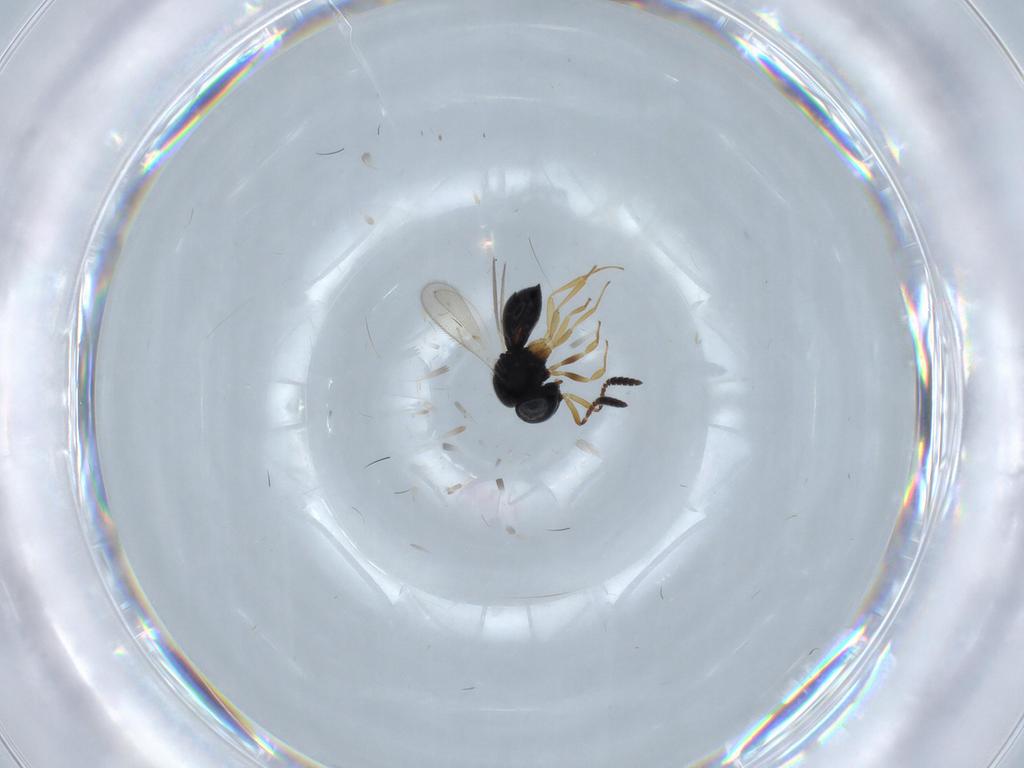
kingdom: Animalia
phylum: Arthropoda
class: Insecta
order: Hymenoptera
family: Scelionidae
